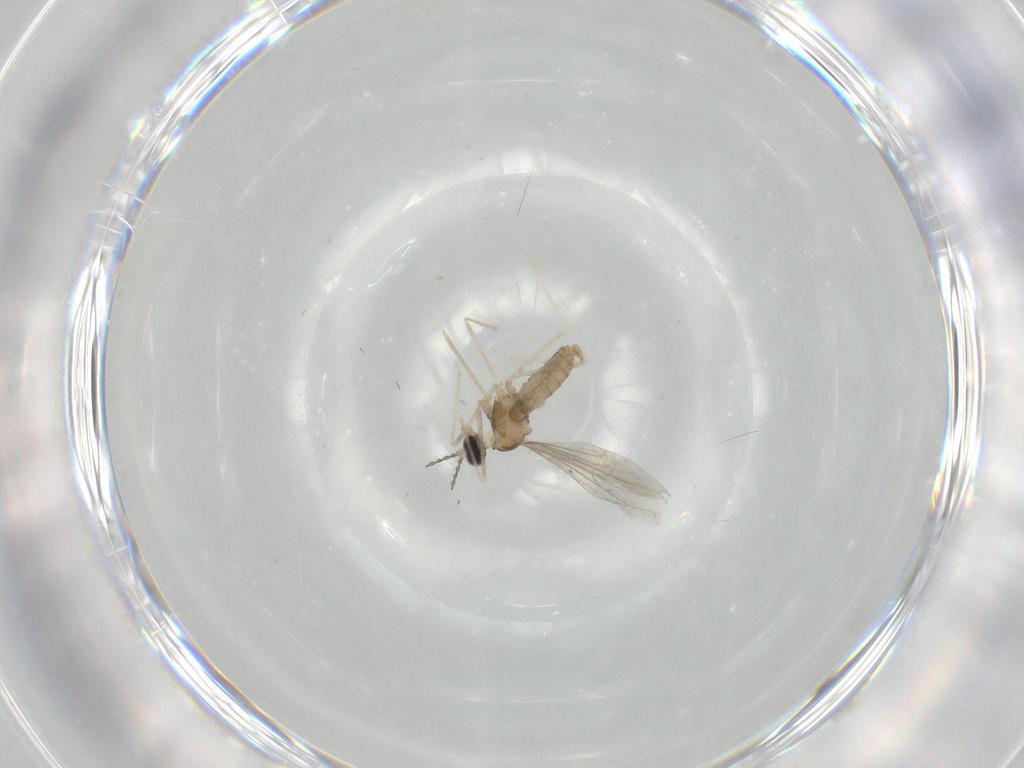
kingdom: Animalia
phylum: Arthropoda
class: Insecta
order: Diptera
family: Cecidomyiidae
